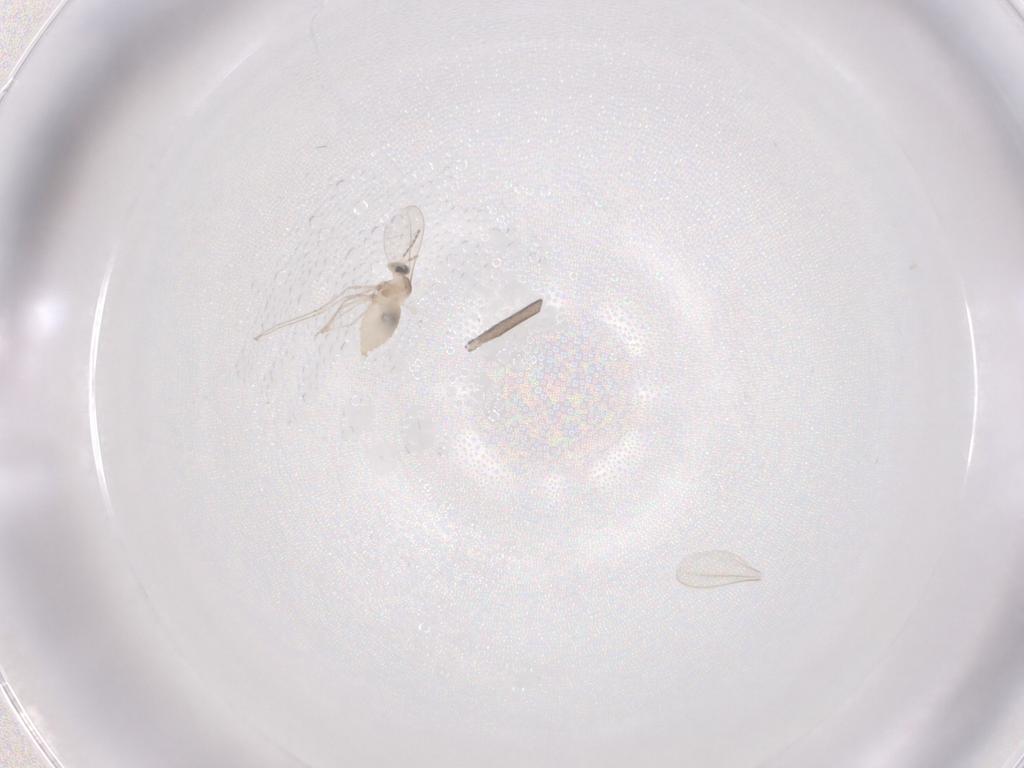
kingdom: Animalia
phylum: Arthropoda
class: Insecta
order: Diptera
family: Cecidomyiidae
